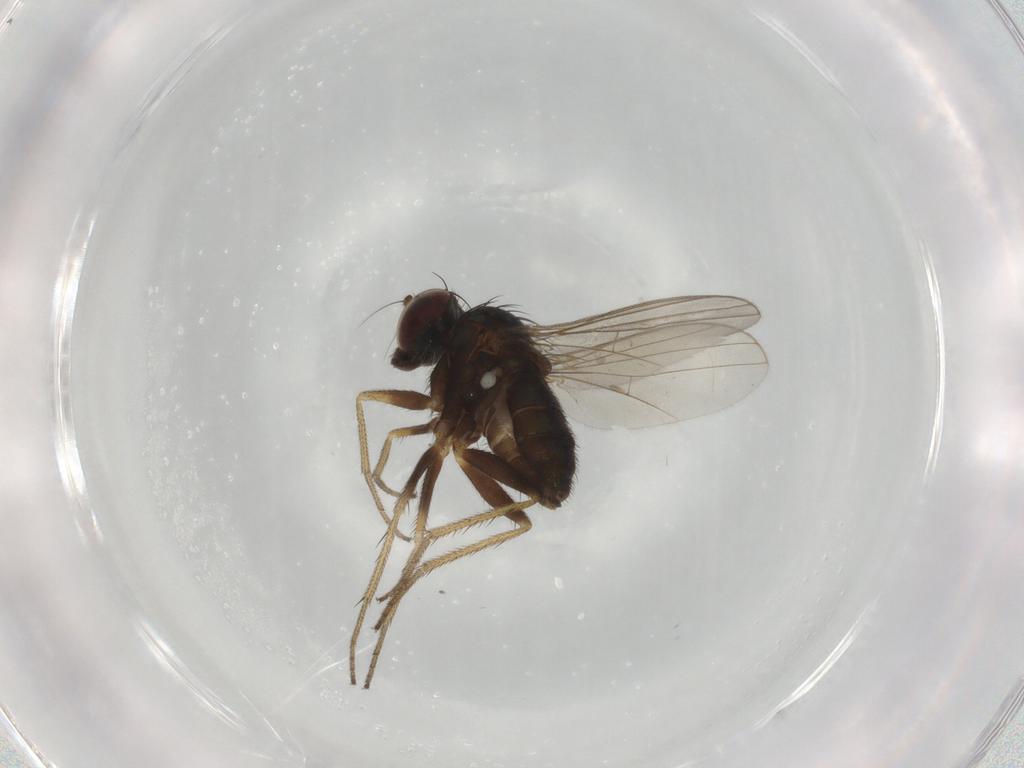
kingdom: Animalia
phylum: Arthropoda
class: Insecta
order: Diptera
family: Dolichopodidae
